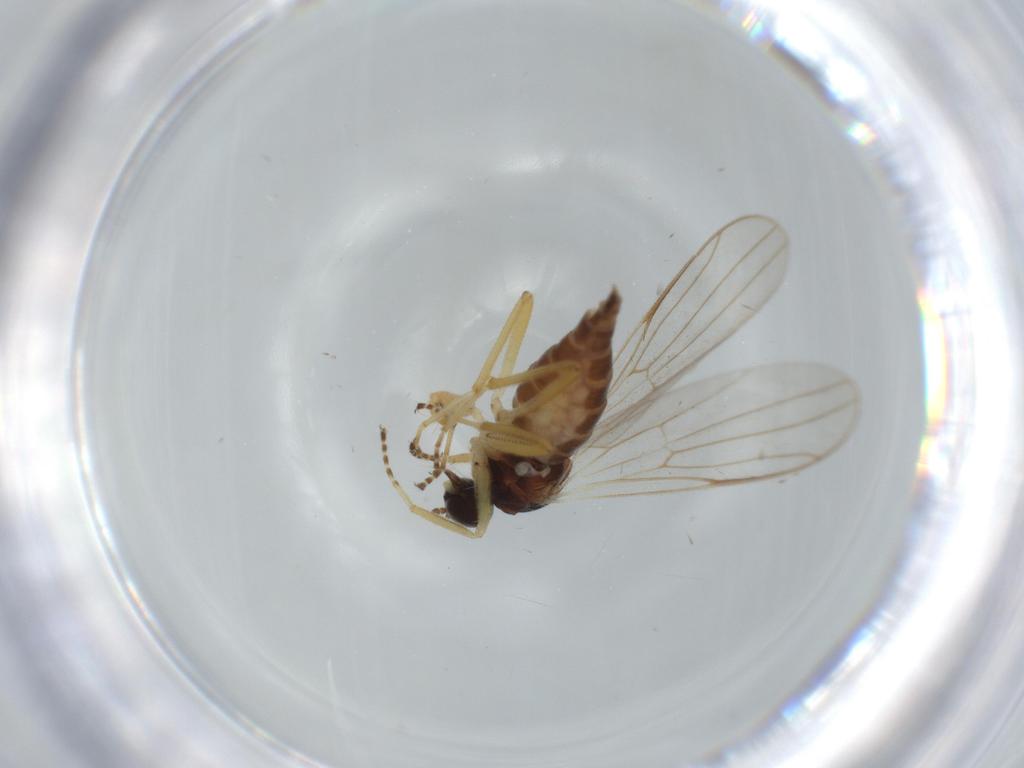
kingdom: Animalia
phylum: Arthropoda
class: Insecta
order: Diptera
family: Hybotidae
